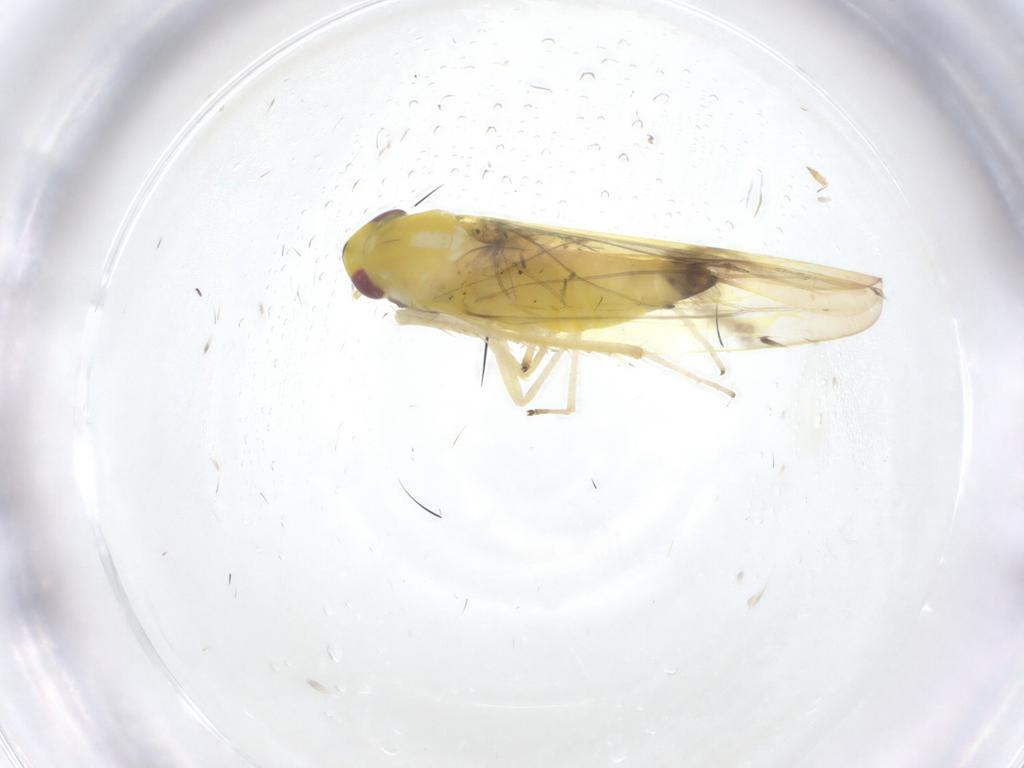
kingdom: Animalia
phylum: Arthropoda
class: Insecta
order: Hemiptera
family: Cicadellidae
